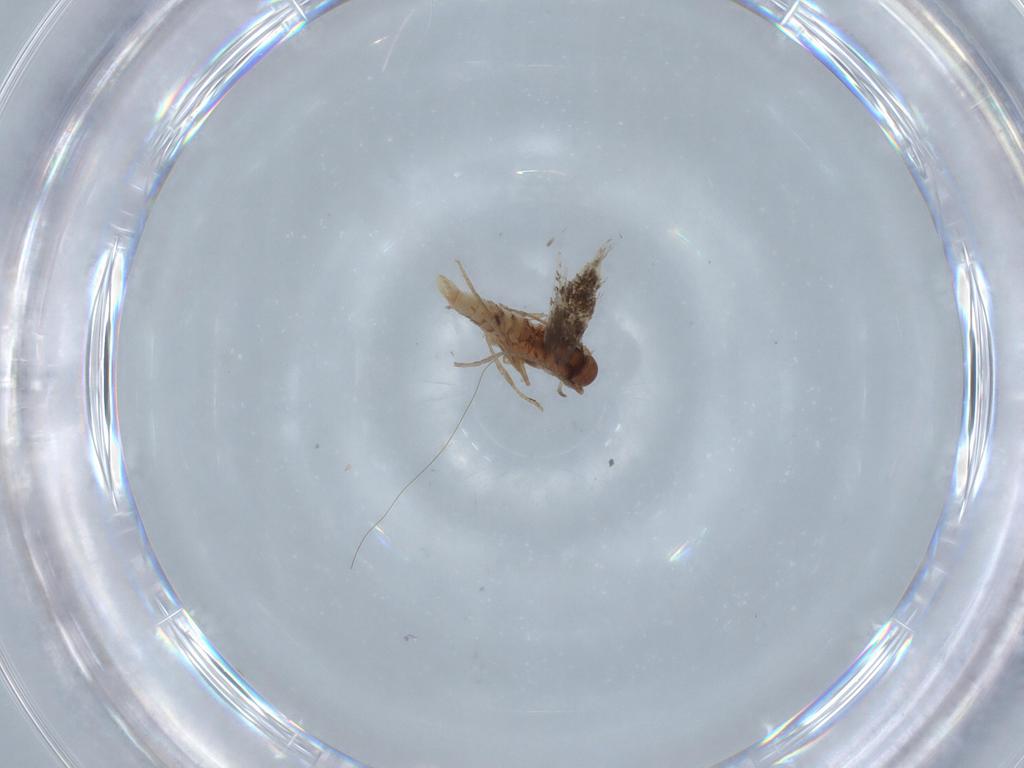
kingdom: Animalia
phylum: Arthropoda
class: Insecta
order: Lepidoptera
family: Elachistidae
